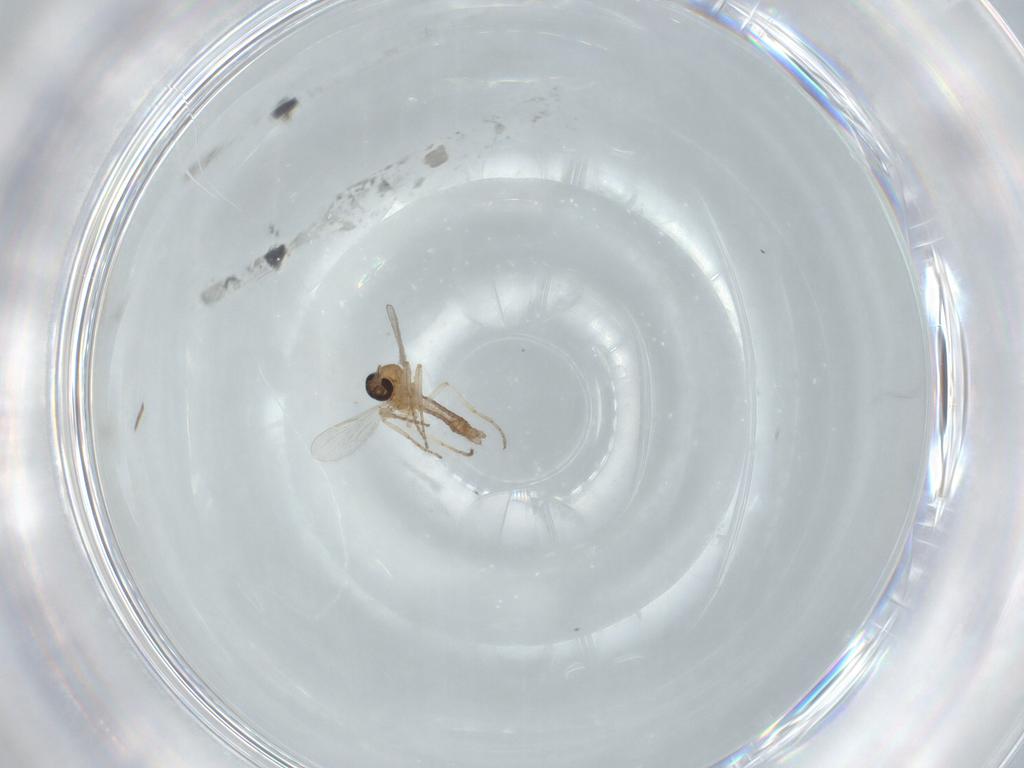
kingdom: Animalia
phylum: Arthropoda
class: Insecta
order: Diptera
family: Ceratopogonidae
